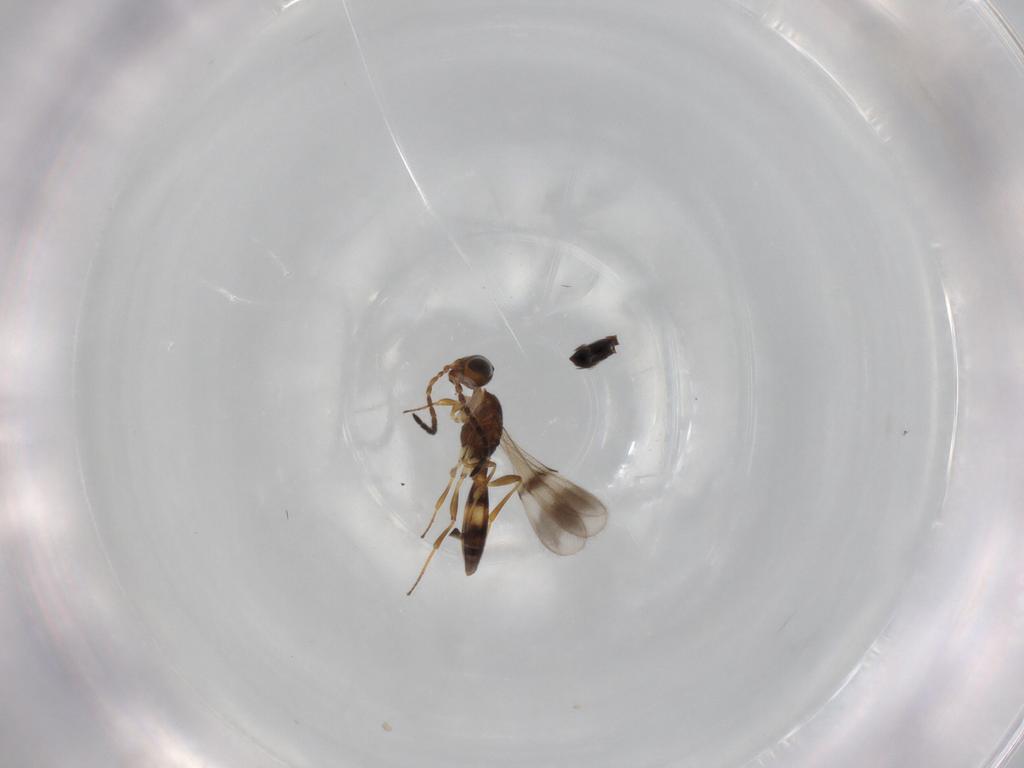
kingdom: Animalia
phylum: Arthropoda
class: Insecta
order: Hymenoptera
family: Scelionidae
